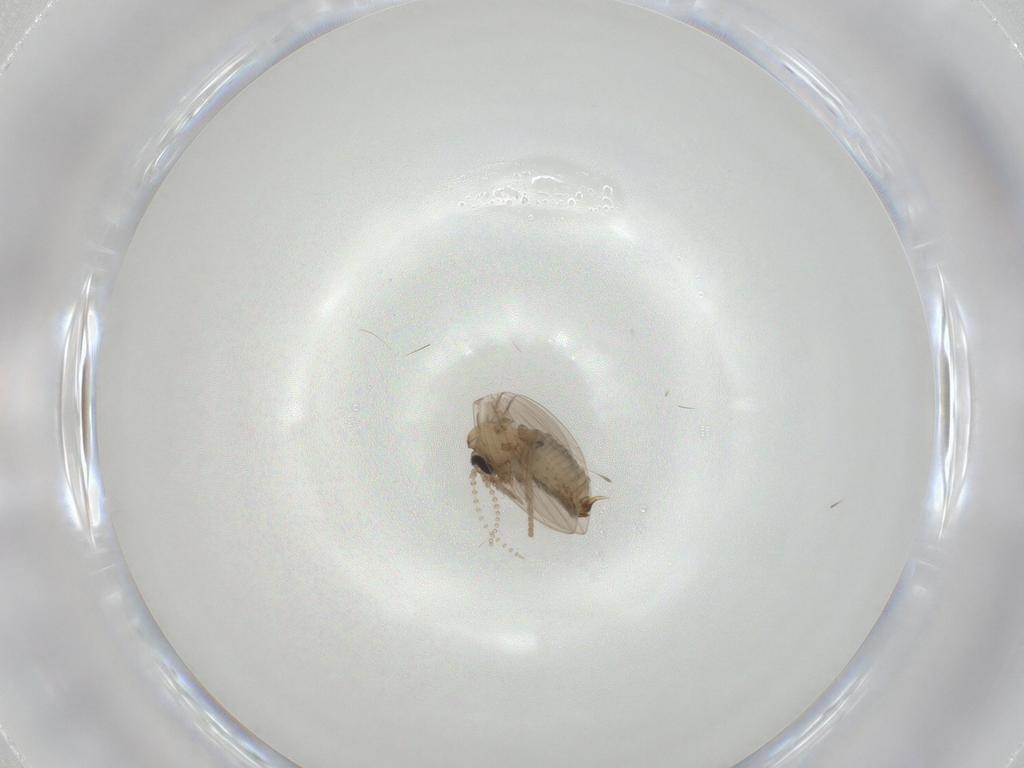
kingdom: Animalia
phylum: Arthropoda
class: Insecta
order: Diptera
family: Psychodidae
